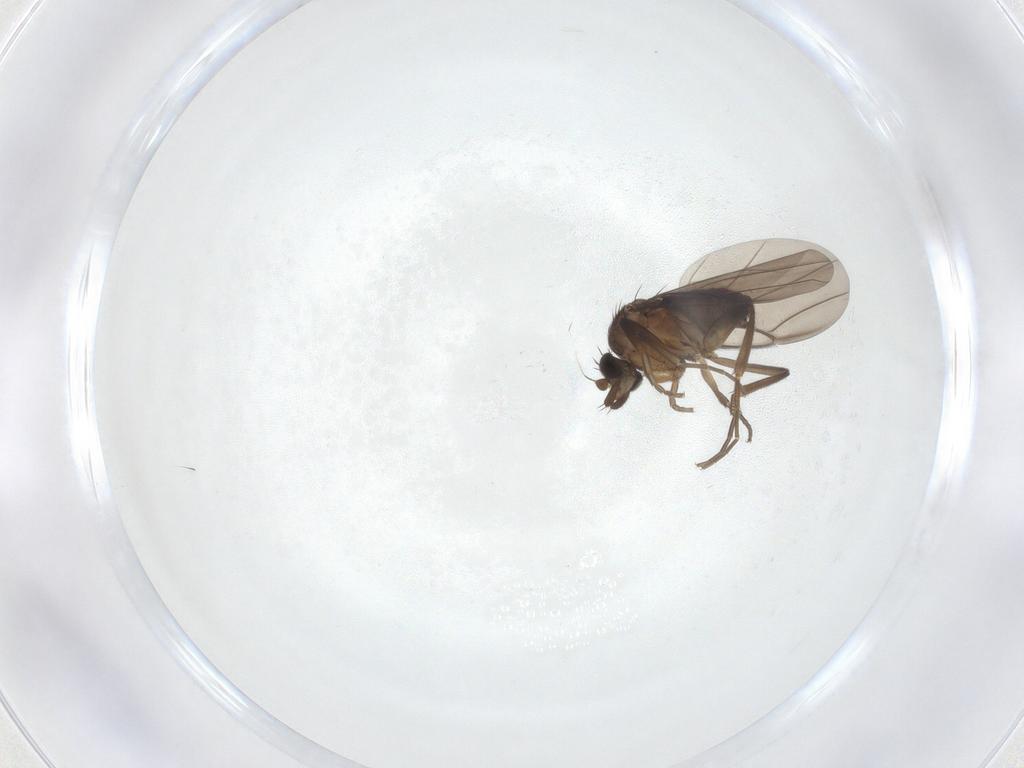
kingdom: Animalia
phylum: Arthropoda
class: Insecta
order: Diptera
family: Phoridae
